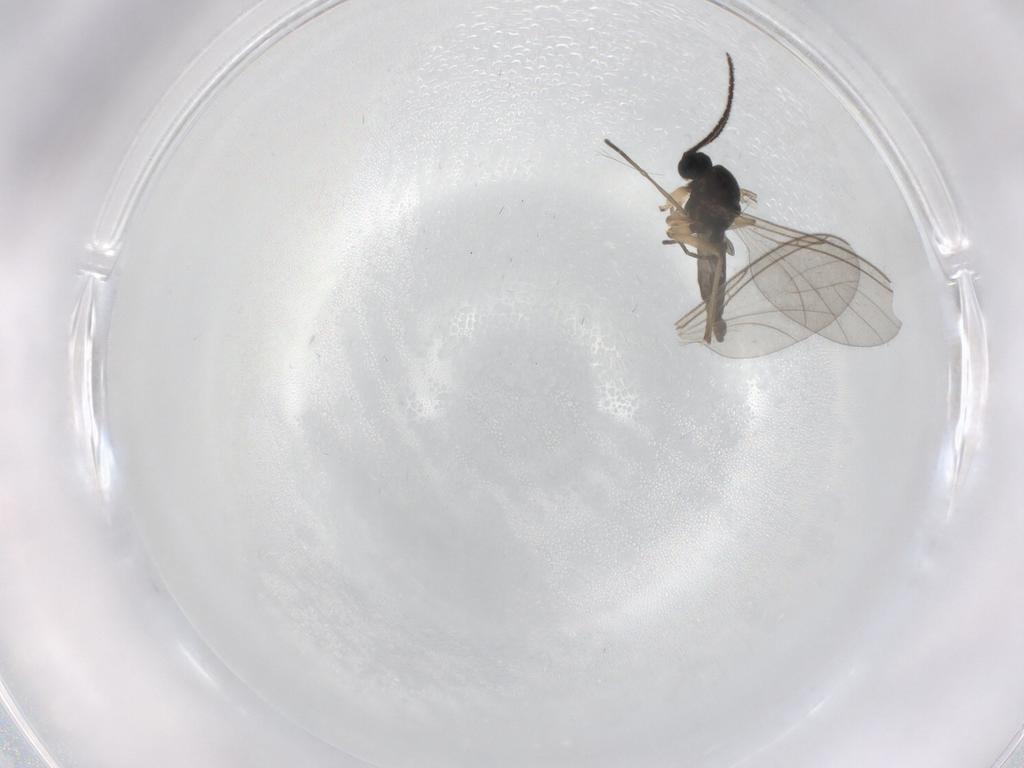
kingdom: Animalia
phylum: Arthropoda
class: Insecta
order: Diptera
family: Sciaridae
